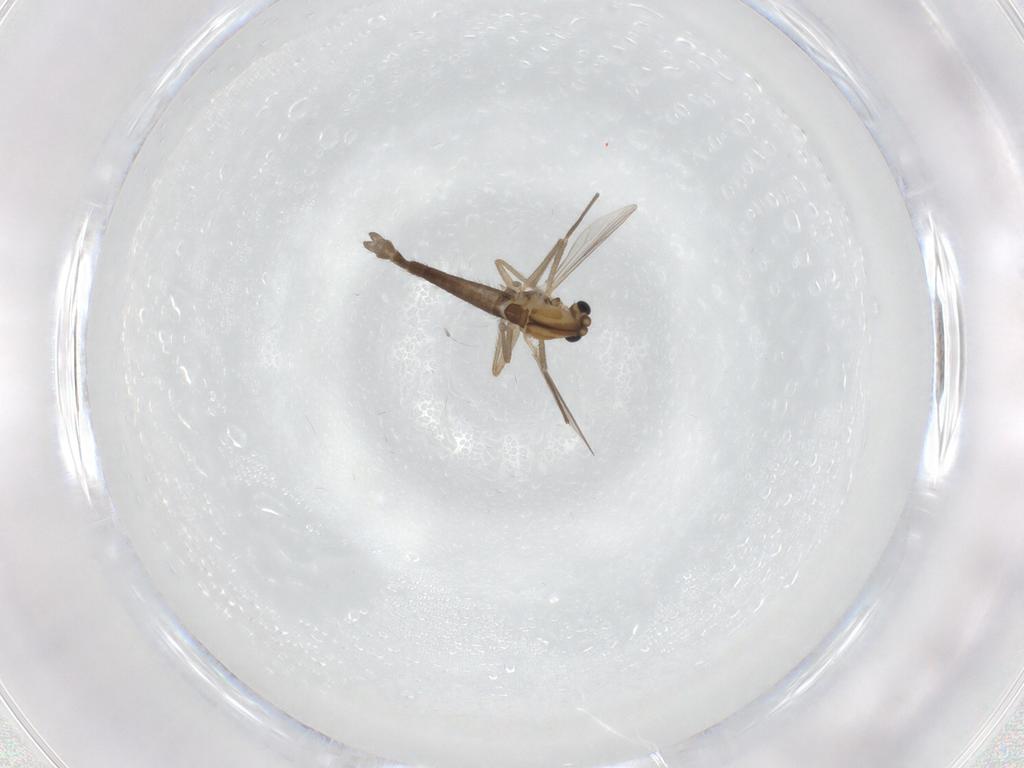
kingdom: Animalia
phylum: Arthropoda
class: Insecta
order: Diptera
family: Chironomidae
